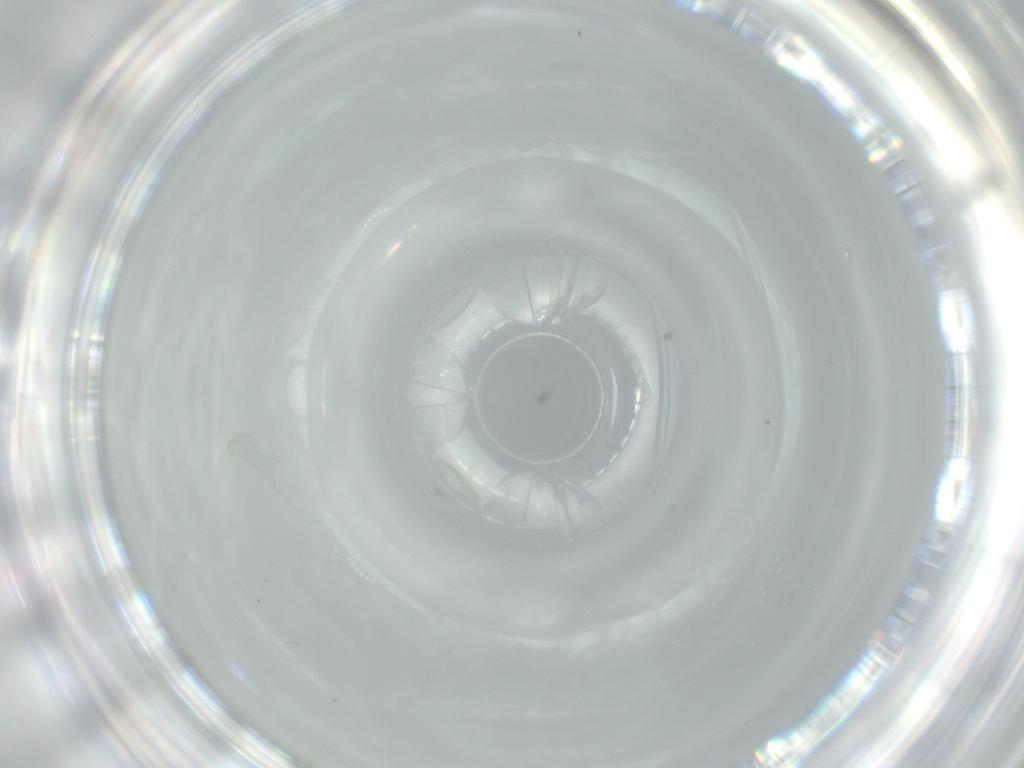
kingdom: Animalia
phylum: Arthropoda
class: Insecta
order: Diptera
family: Cecidomyiidae
